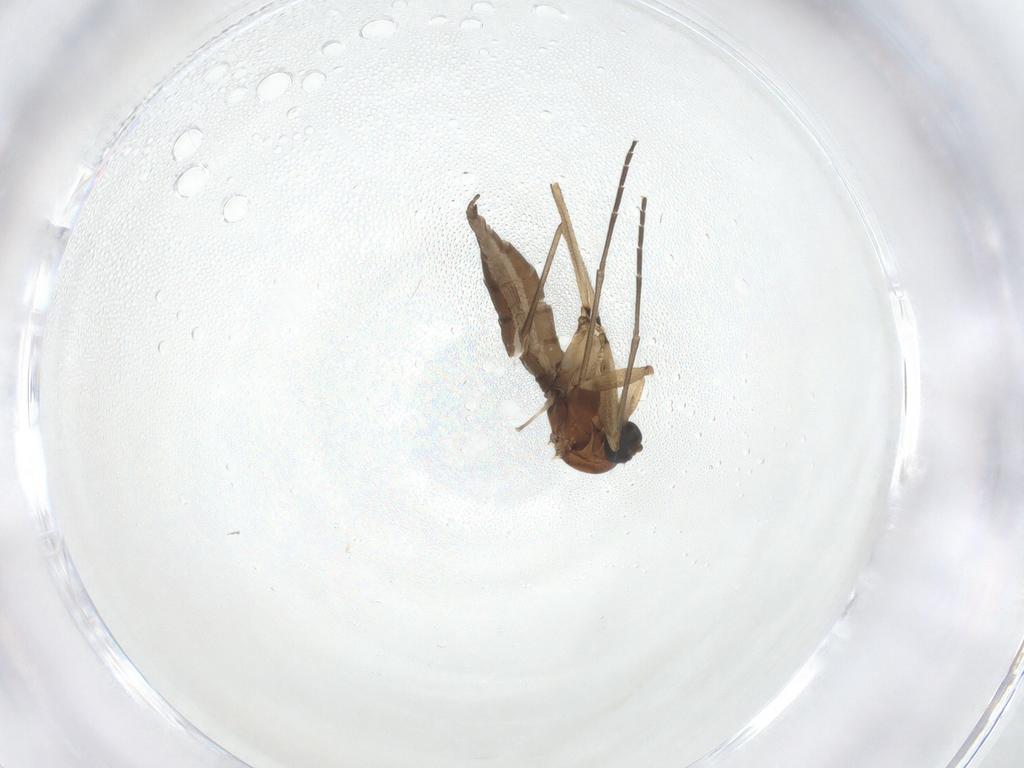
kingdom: Animalia
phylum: Arthropoda
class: Insecta
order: Diptera
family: Sciaridae
